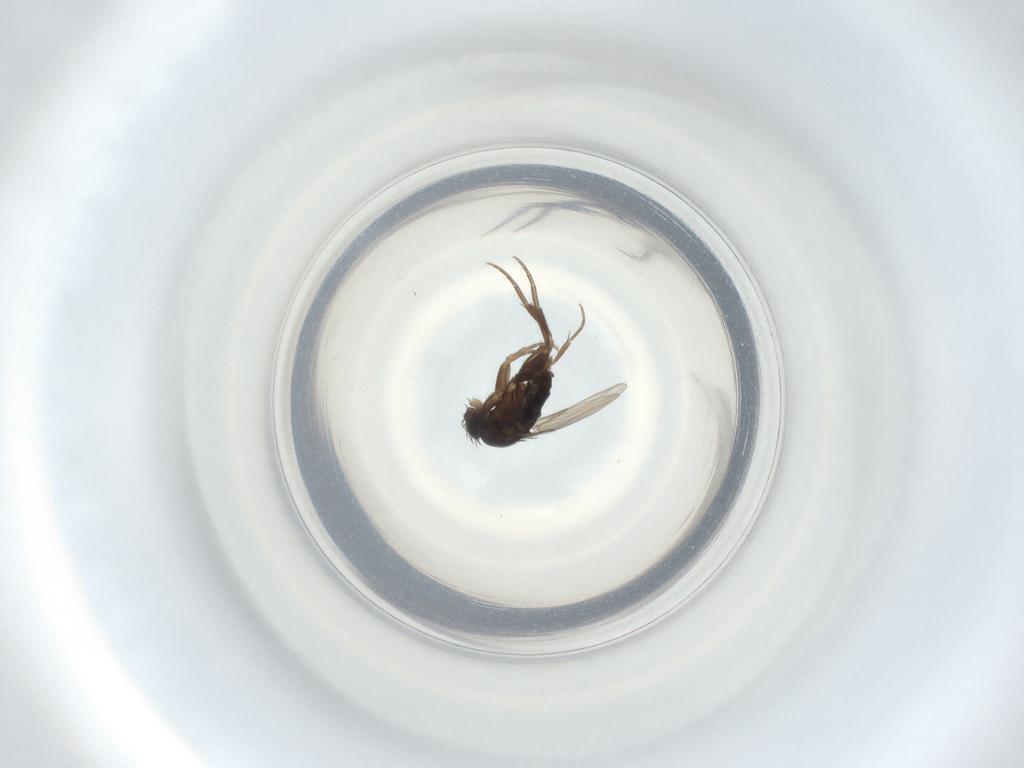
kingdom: Animalia
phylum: Arthropoda
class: Insecta
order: Diptera
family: Phoridae
